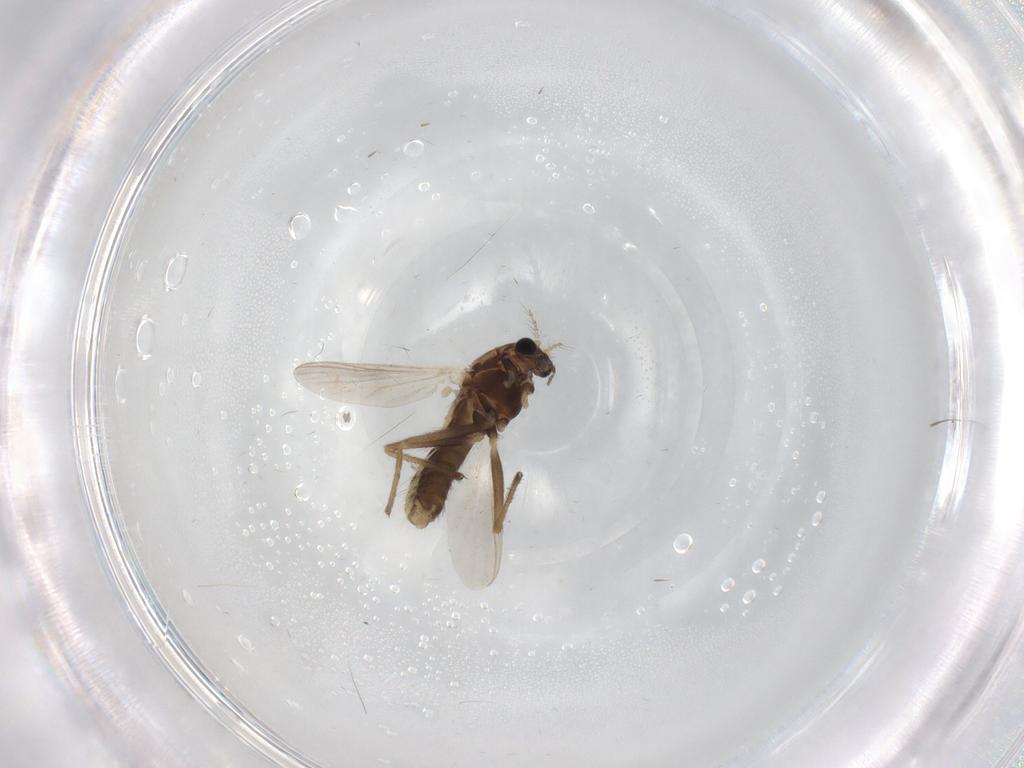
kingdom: Animalia
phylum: Arthropoda
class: Insecta
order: Diptera
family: Chironomidae
